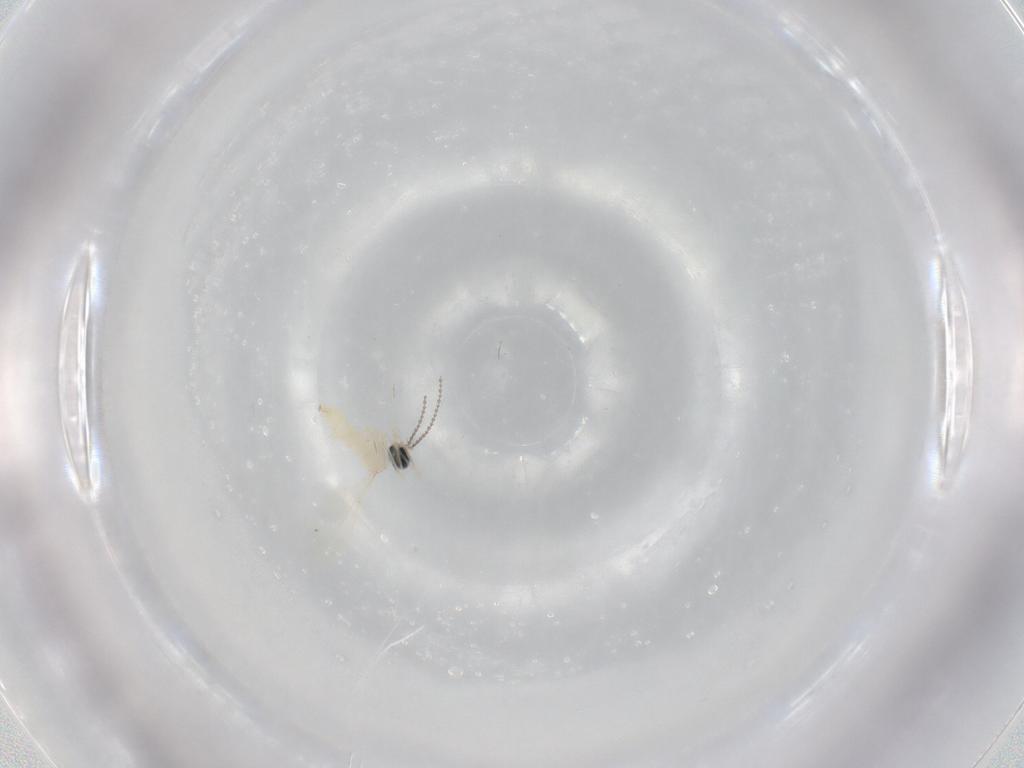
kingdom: Animalia
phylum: Arthropoda
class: Insecta
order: Diptera
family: Cecidomyiidae
